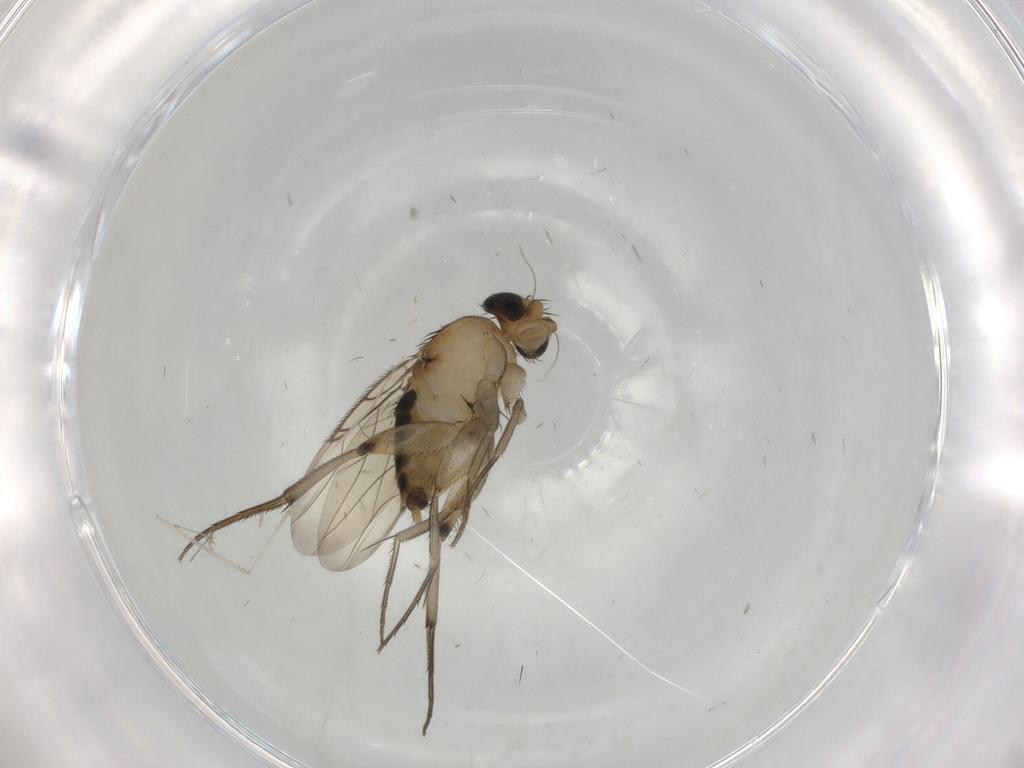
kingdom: Animalia
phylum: Arthropoda
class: Insecta
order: Diptera
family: Phoridae
